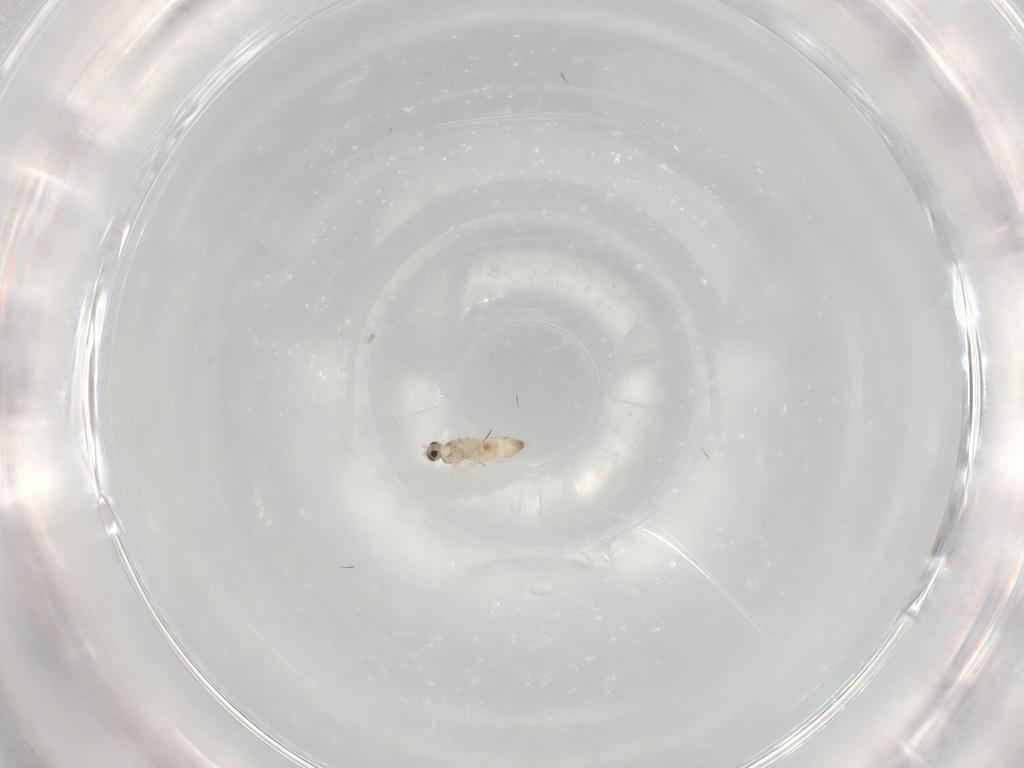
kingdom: Animalia
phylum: Arthropoda
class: Insecta
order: Diptera
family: Cecidomyiidae
